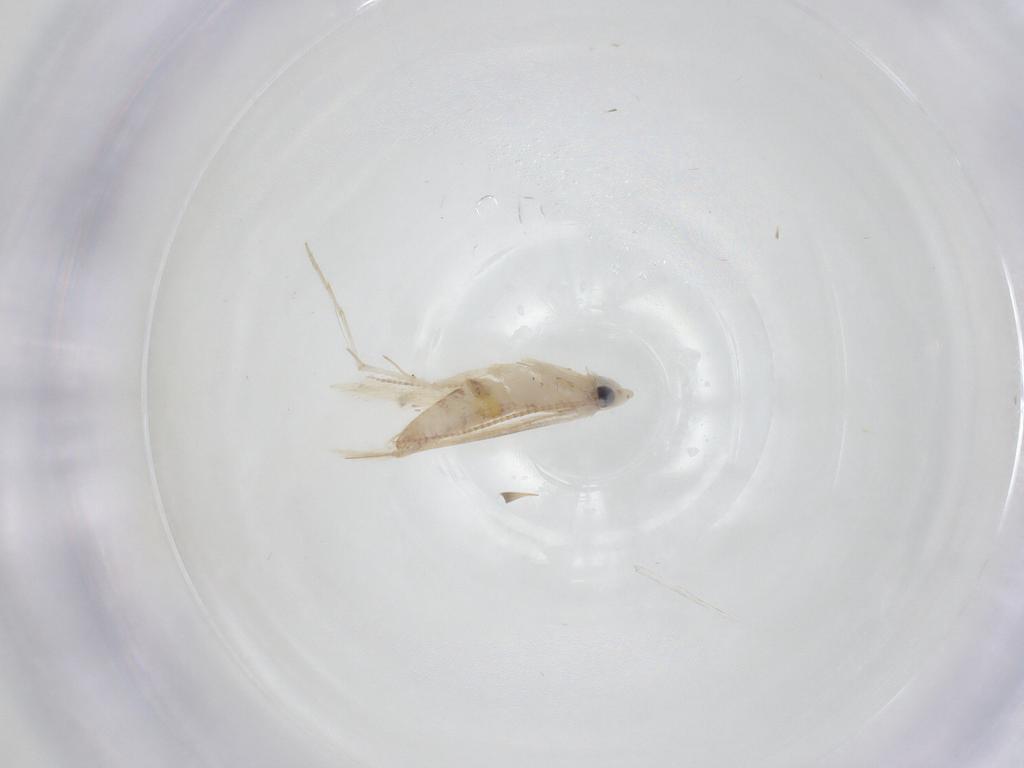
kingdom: Animalia
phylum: Arthropoda
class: Insecta
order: Lepidoptera
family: Saturniidae
